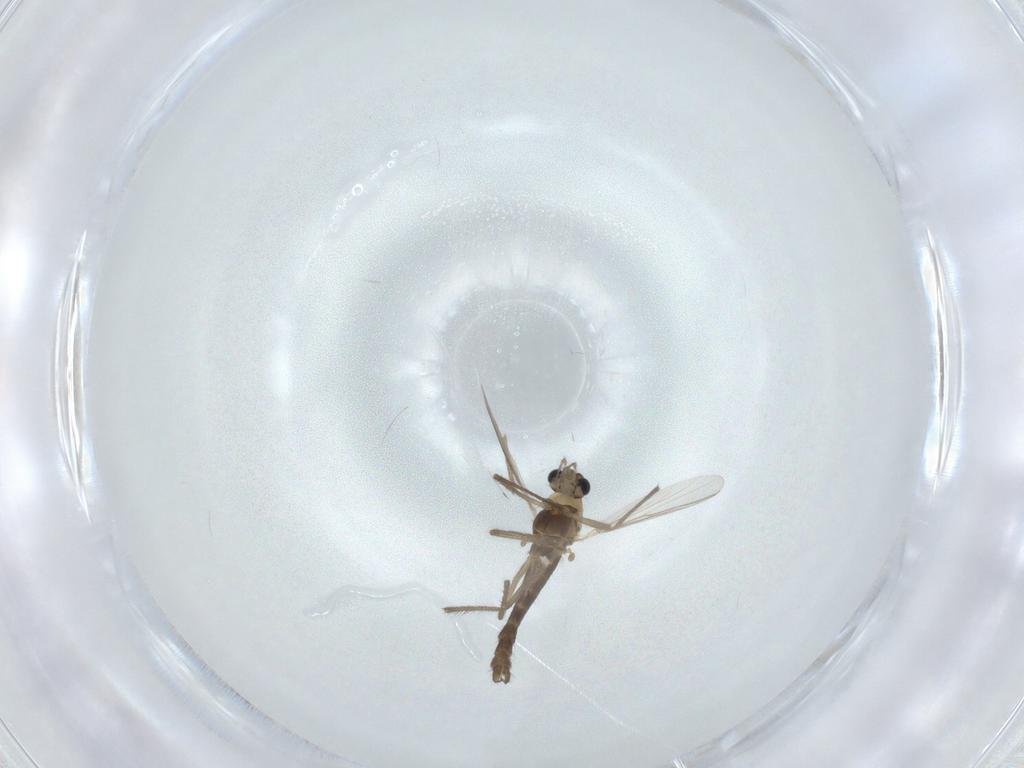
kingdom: Animalia
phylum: Arthropoda
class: Insecta
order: Diptera
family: Chironomidae
